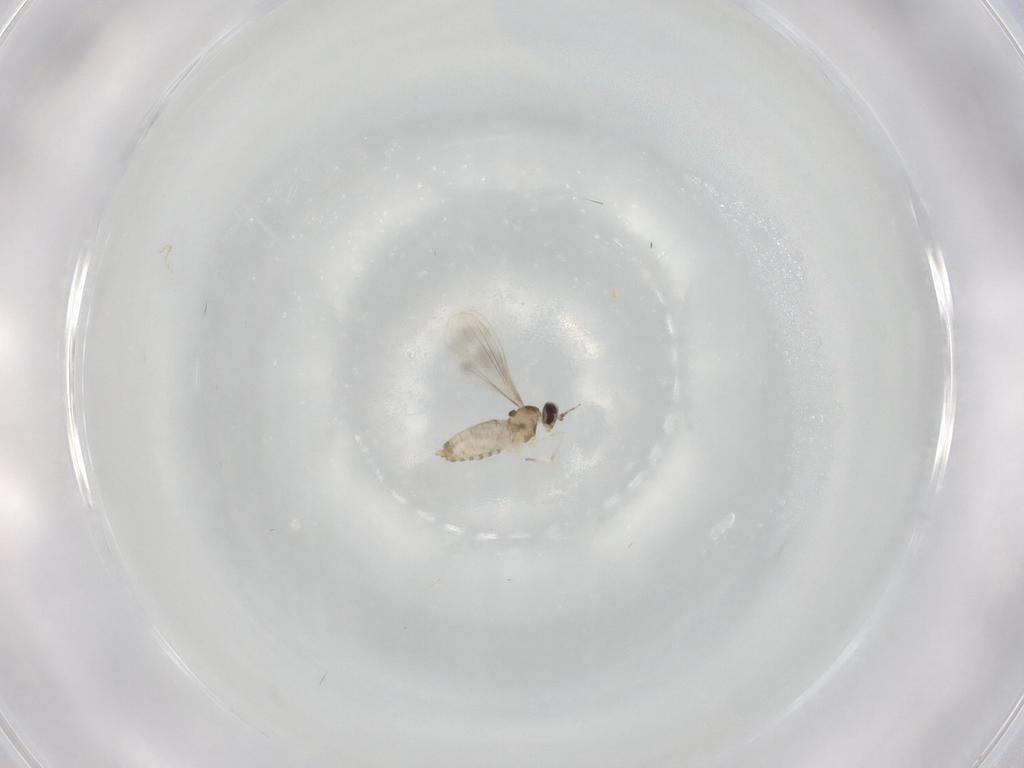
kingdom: Animalia
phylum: Arthropoda
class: Insecta
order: Diptera
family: Cecidomyiidae
